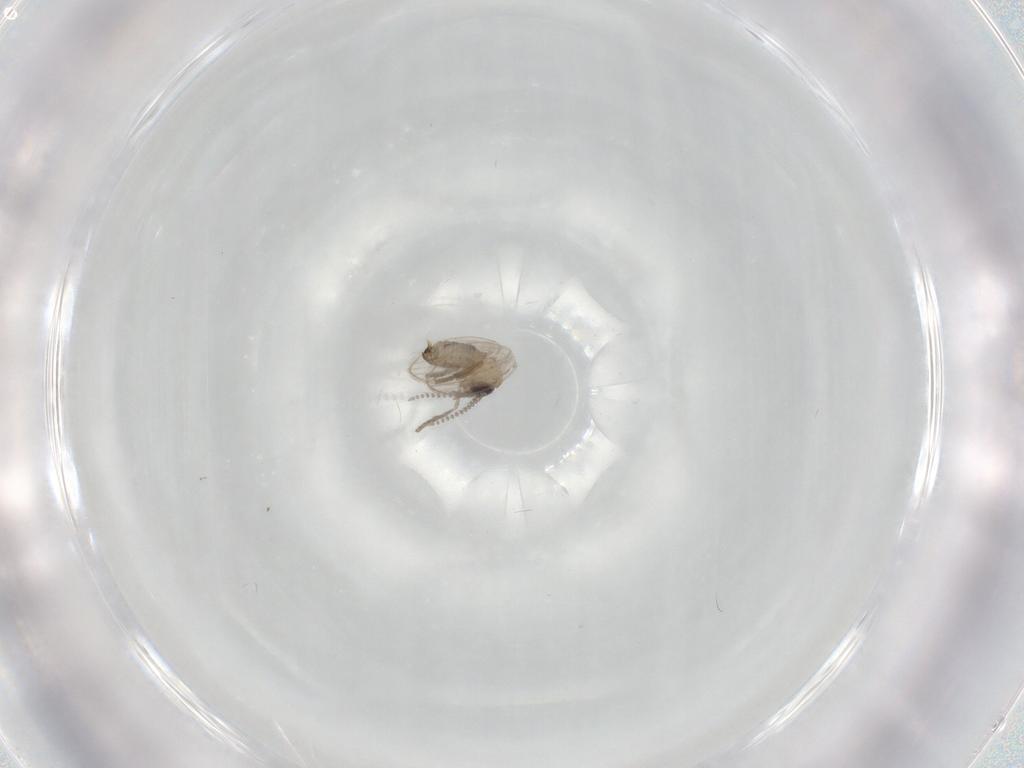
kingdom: Animalia
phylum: Arthropoda
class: Insecta
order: Diptera
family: Psychodidae
